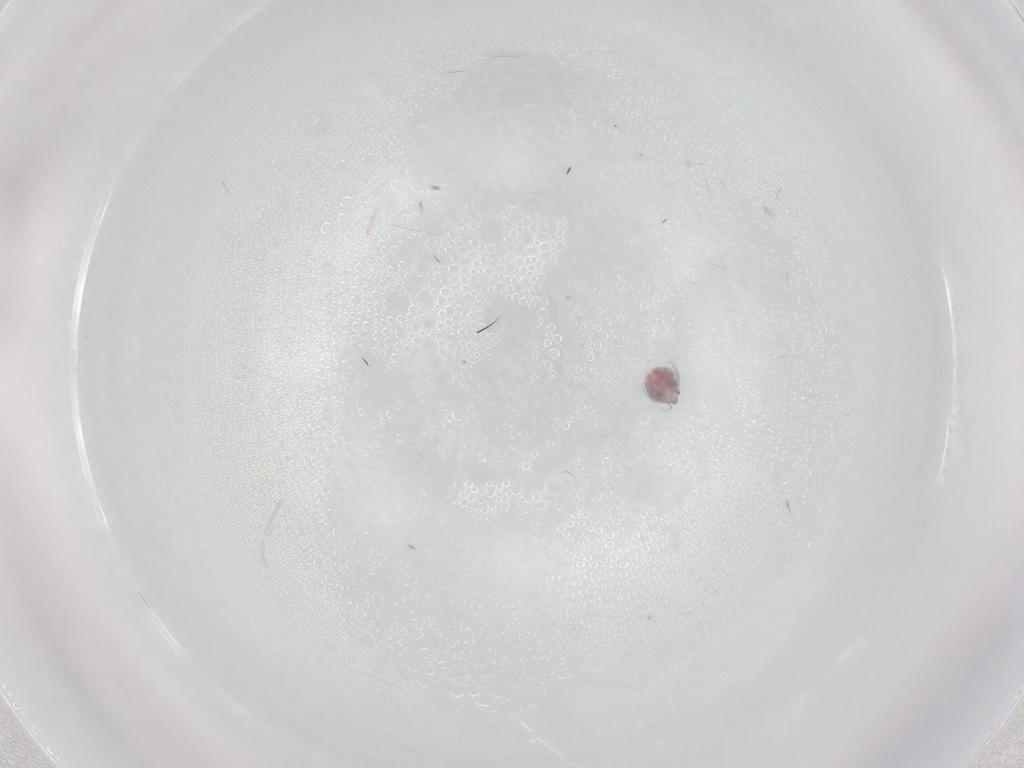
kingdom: Animalia
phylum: Arthropoda
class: Arachnida
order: Trombidiformes
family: Unionicolidae
